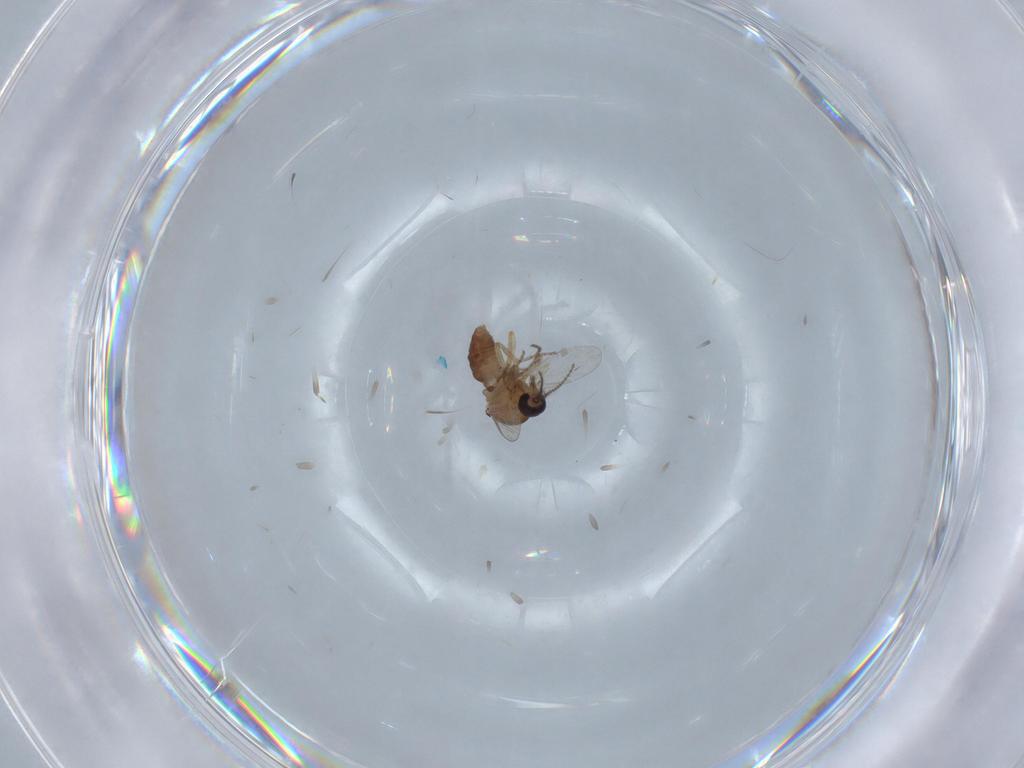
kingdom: Animalia
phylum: Arthropoda
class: Insecta
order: Diptera
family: Ceratopogonidae
